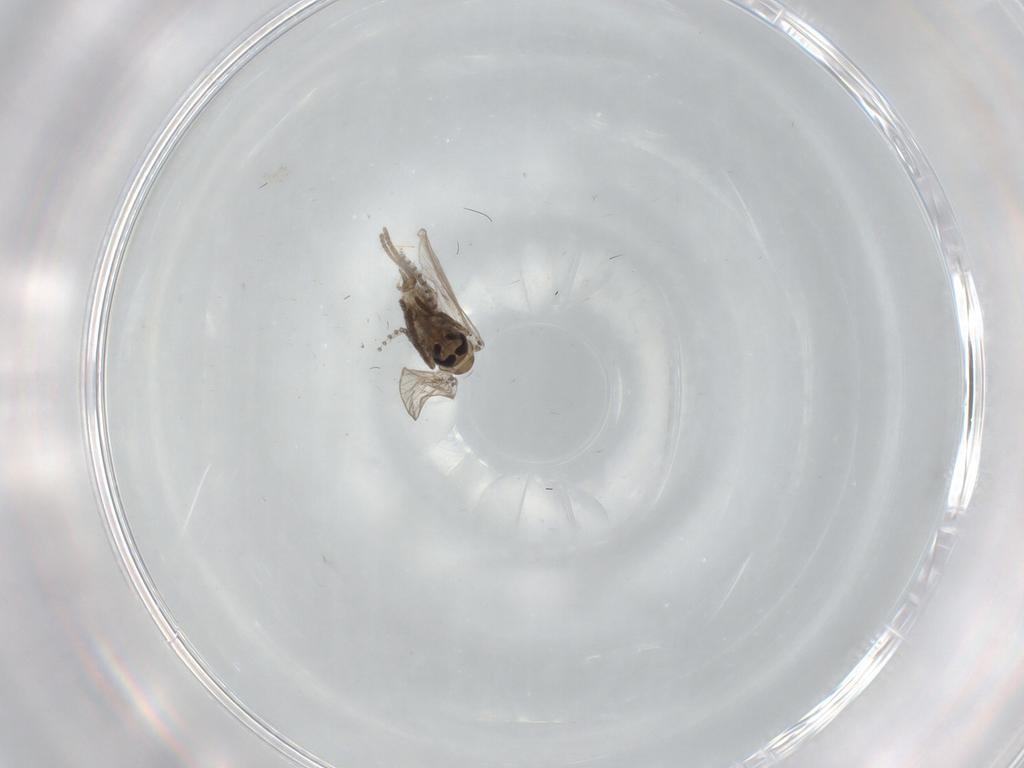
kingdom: Animalia
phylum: Arthropoda
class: Insecta
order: Diptera
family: Psychodidae
